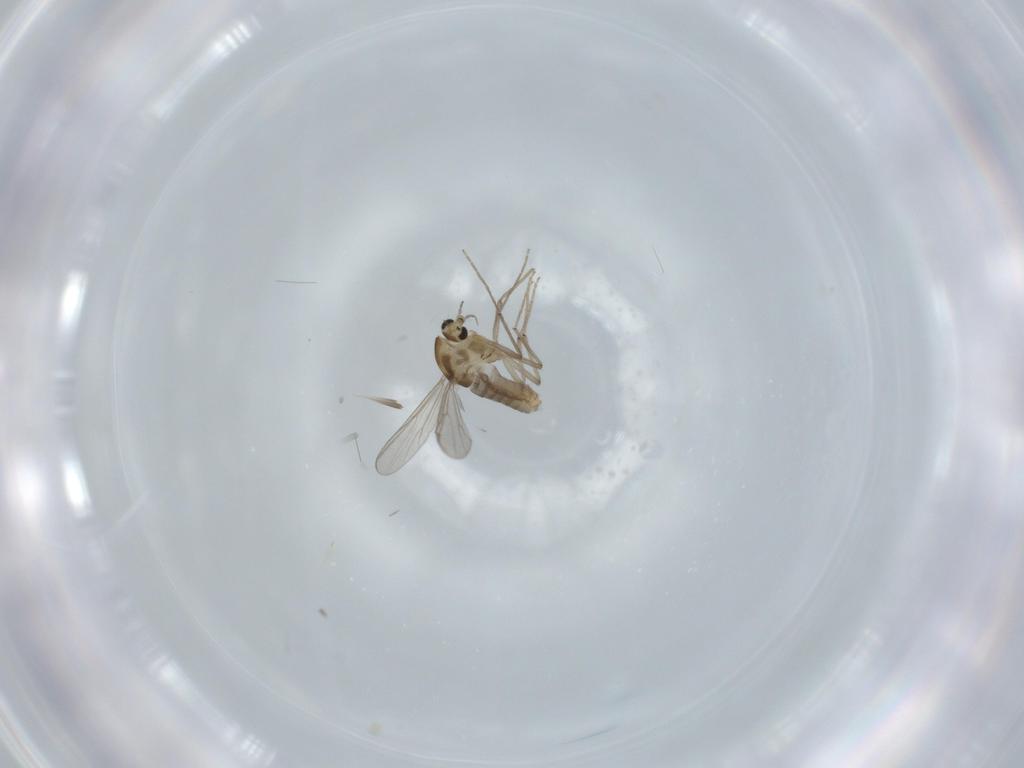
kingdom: Animalia
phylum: Arthropoda
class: Insecta
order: Diptera
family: Chironomidae
